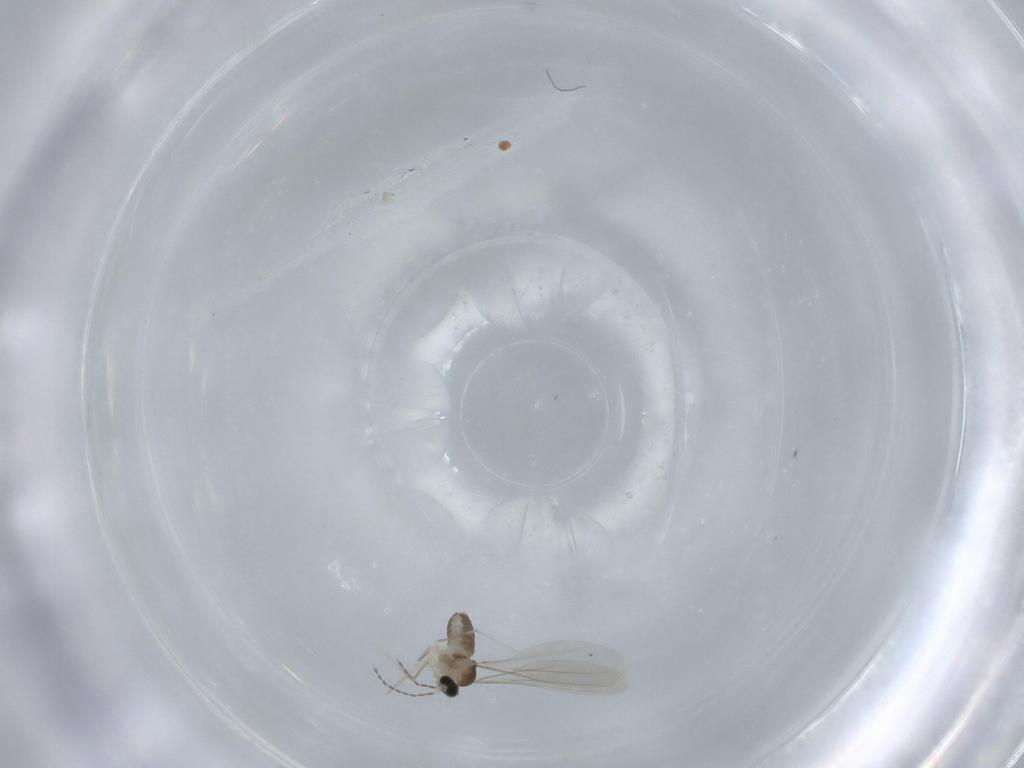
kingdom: Animalia
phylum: Arthropoda
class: Insecta
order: Diptera
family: Cecidomyiidae
